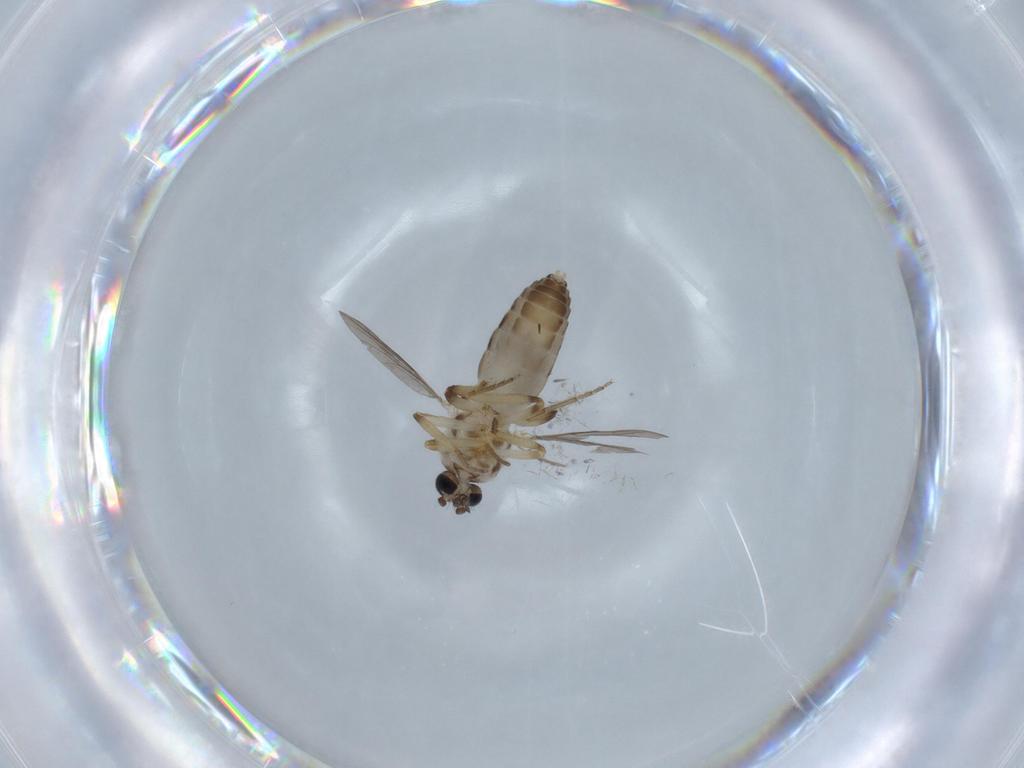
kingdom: Animalia
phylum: Arthropoda
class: Insecta
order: Diptera
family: Ceratopogonidae
